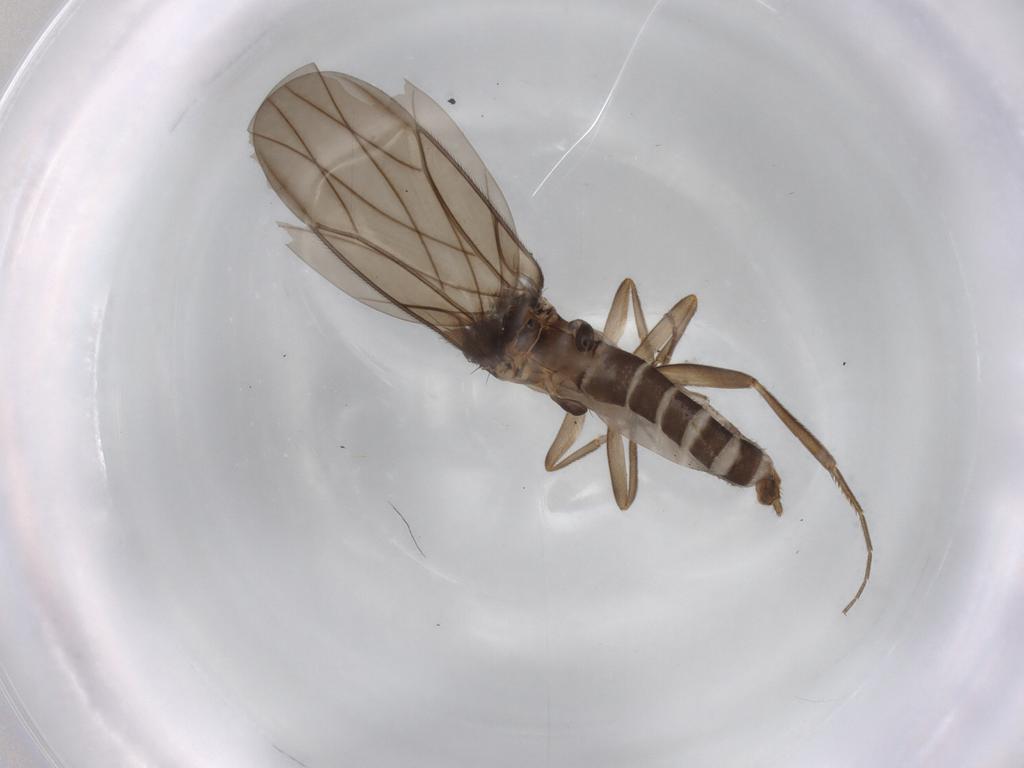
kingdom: Animalia
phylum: Arthropoda
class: Insecta
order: Diptera
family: Phoridae
